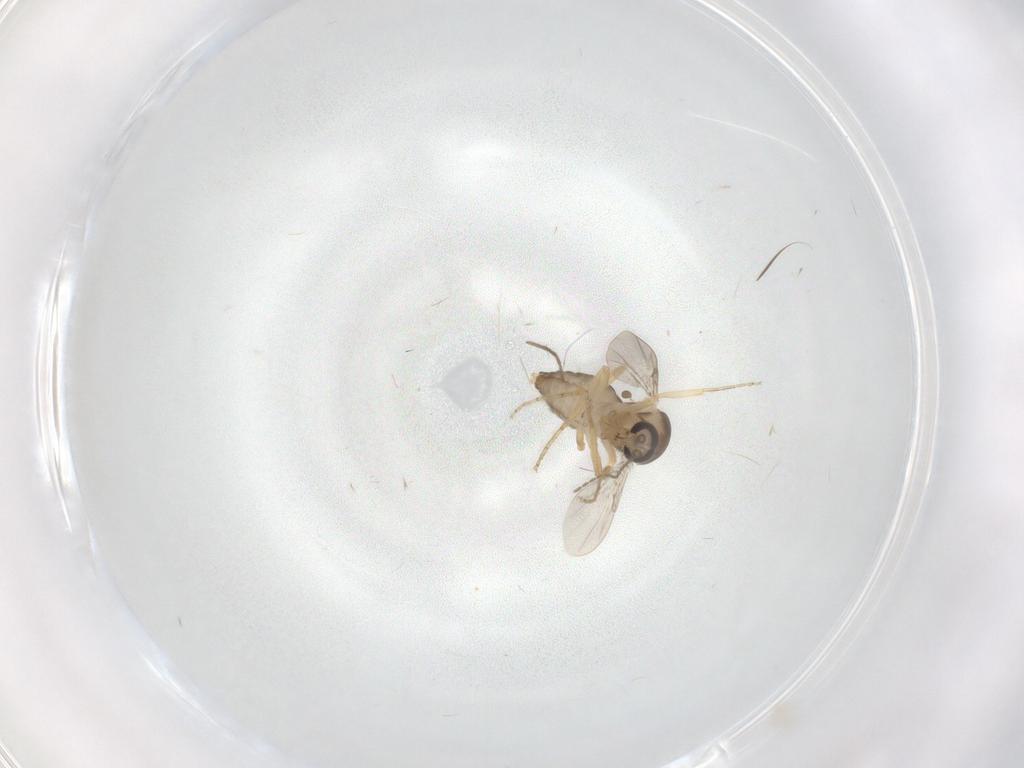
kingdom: Animalia
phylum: Arthropoda
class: Insecta
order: Diptera
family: Ceratopogonidae
